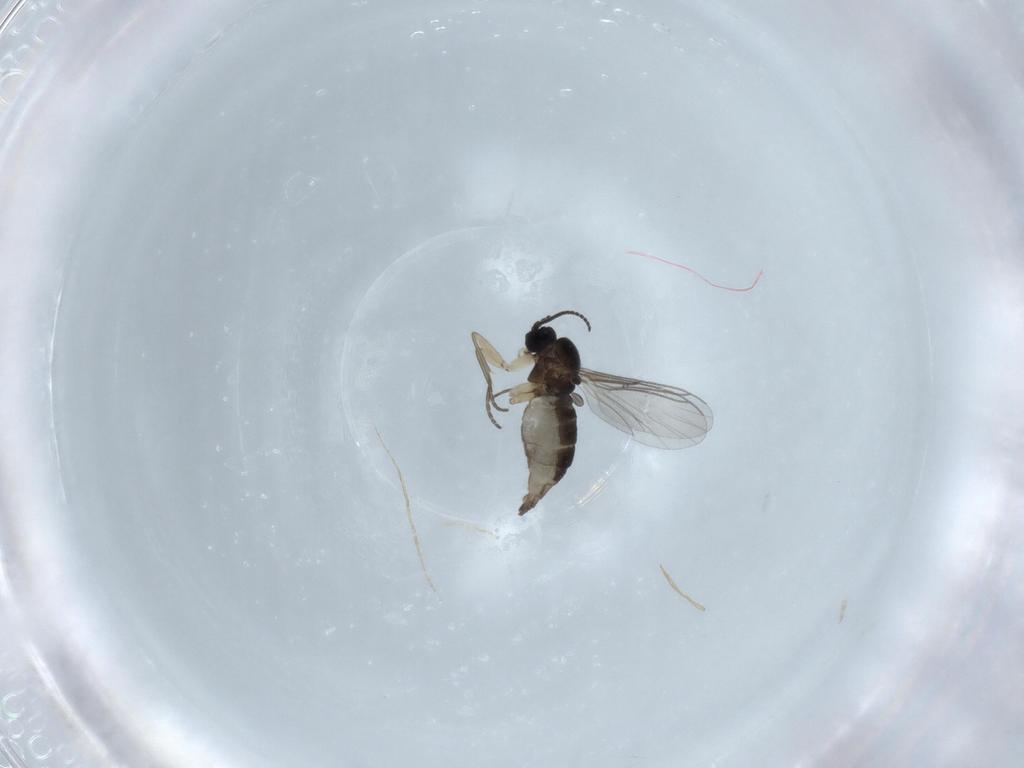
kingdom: Animalia
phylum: Arthropoda
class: Insecta
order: Diptera
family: Sciaridae
